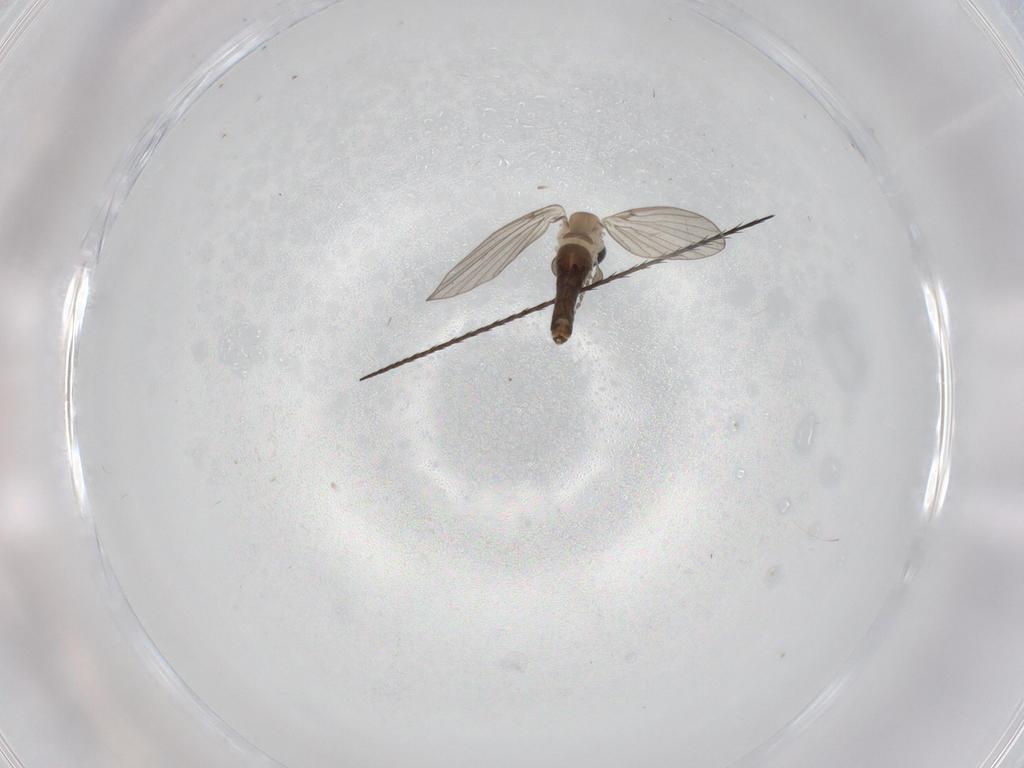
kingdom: Animalia
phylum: Arthropoda
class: Insecta
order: Diptera
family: Psychodidae
